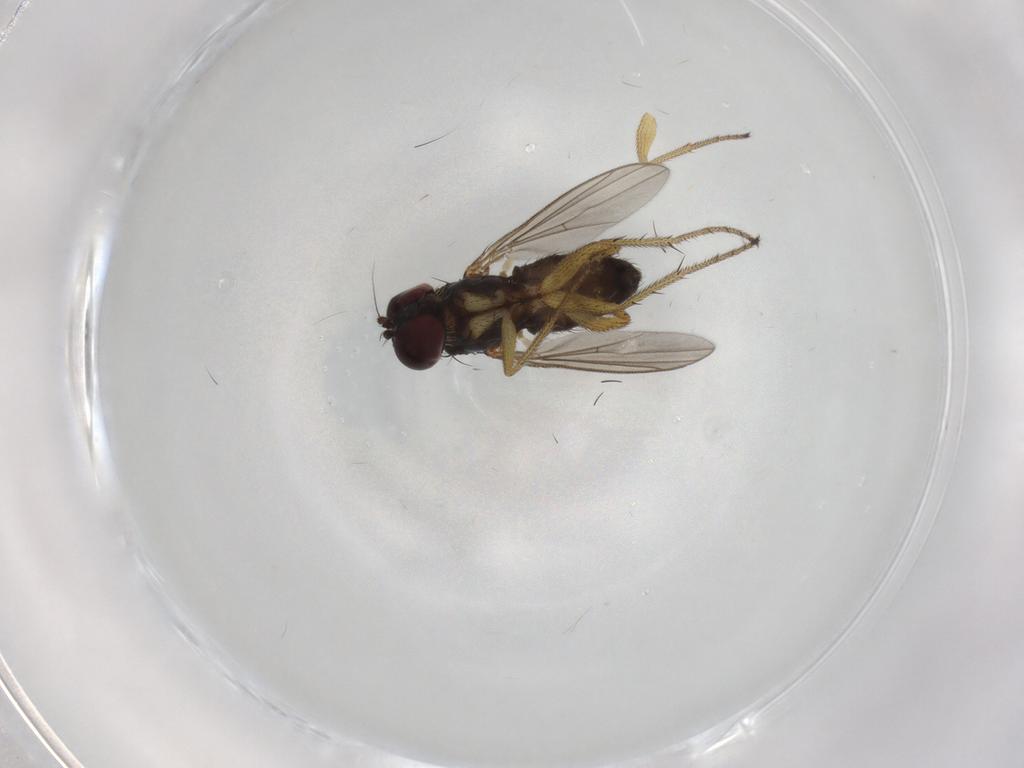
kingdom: Animalia
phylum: Arthropoda
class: Insecta
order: Diptera
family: Dolichopodidae
